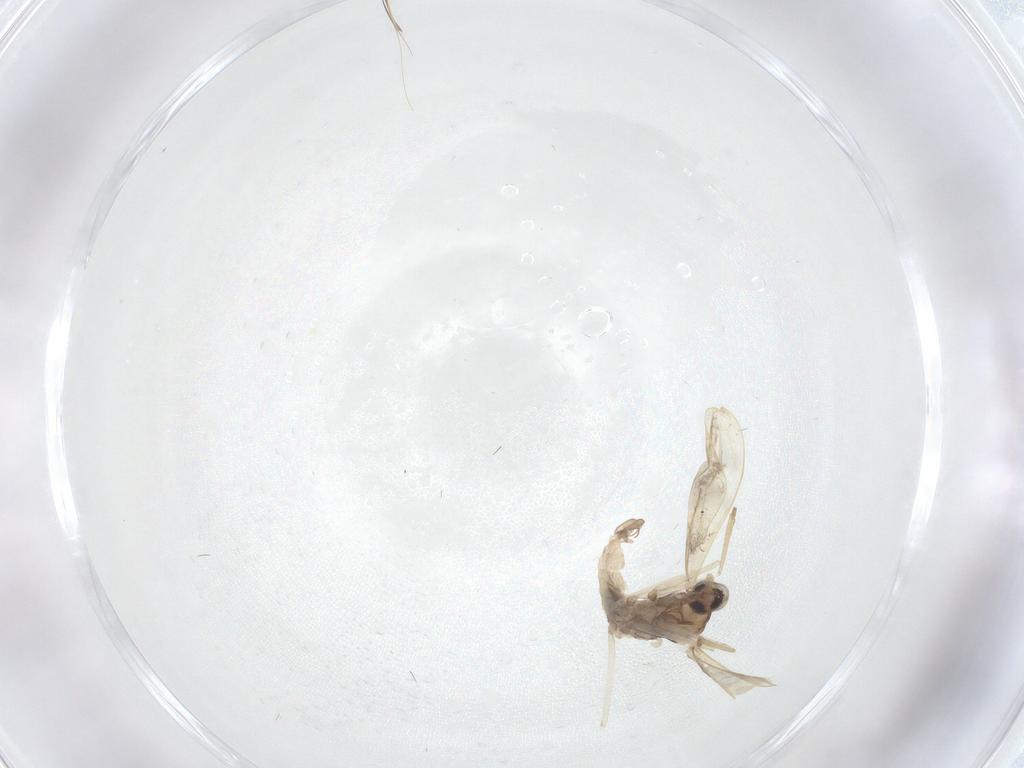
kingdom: Animalia
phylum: Arthropoda
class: Insecta
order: Diptera
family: Cecidomyiidae
